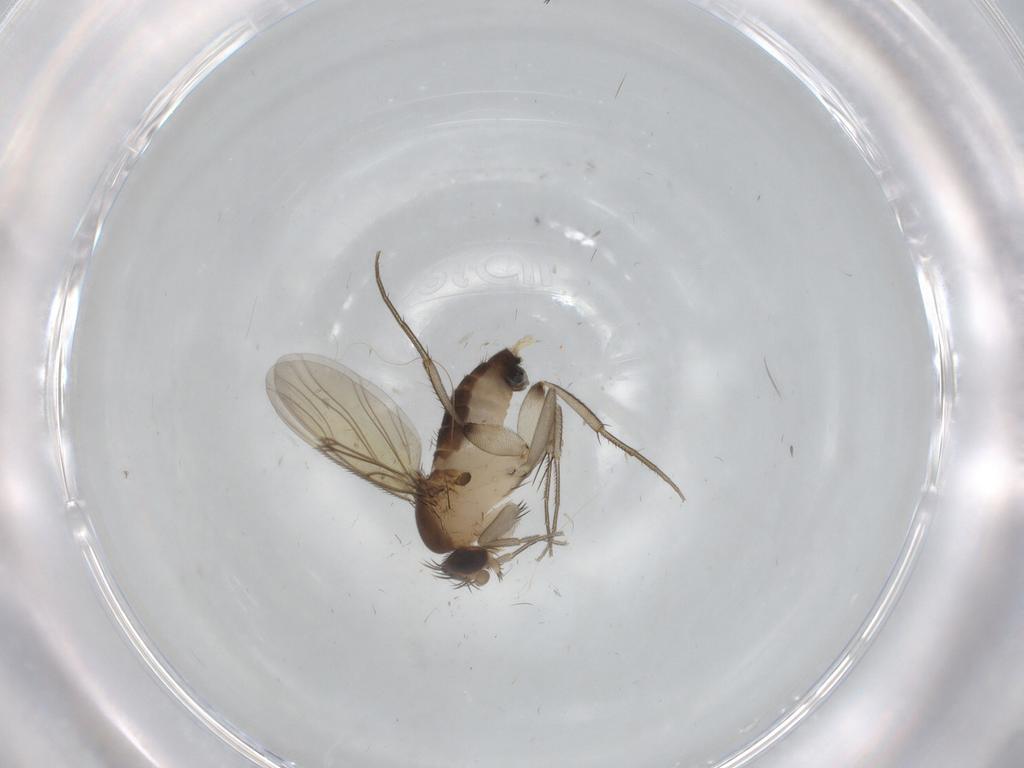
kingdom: Animalia
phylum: Arthropoda
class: Insecta
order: Diptera
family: Phoridae
